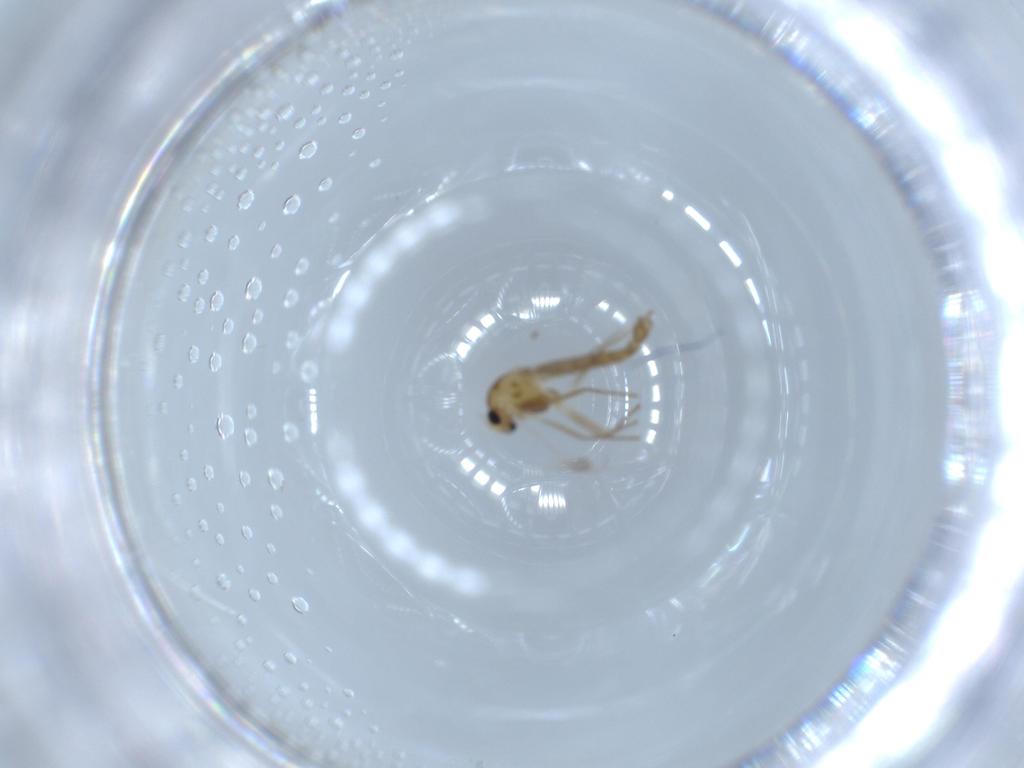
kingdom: Animalia
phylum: Arthropoda
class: Insecta
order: Diptera
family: Chironomidae
